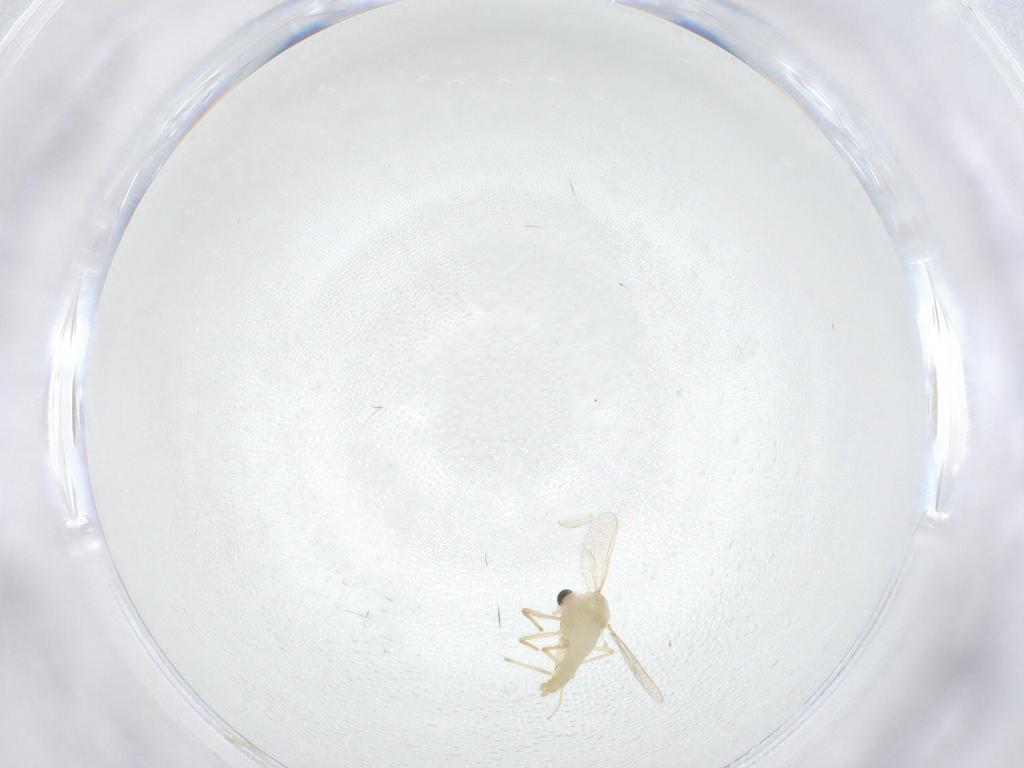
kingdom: Animalia
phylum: Arthropoda
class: Insecta
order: Diptera
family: Chironomidae
